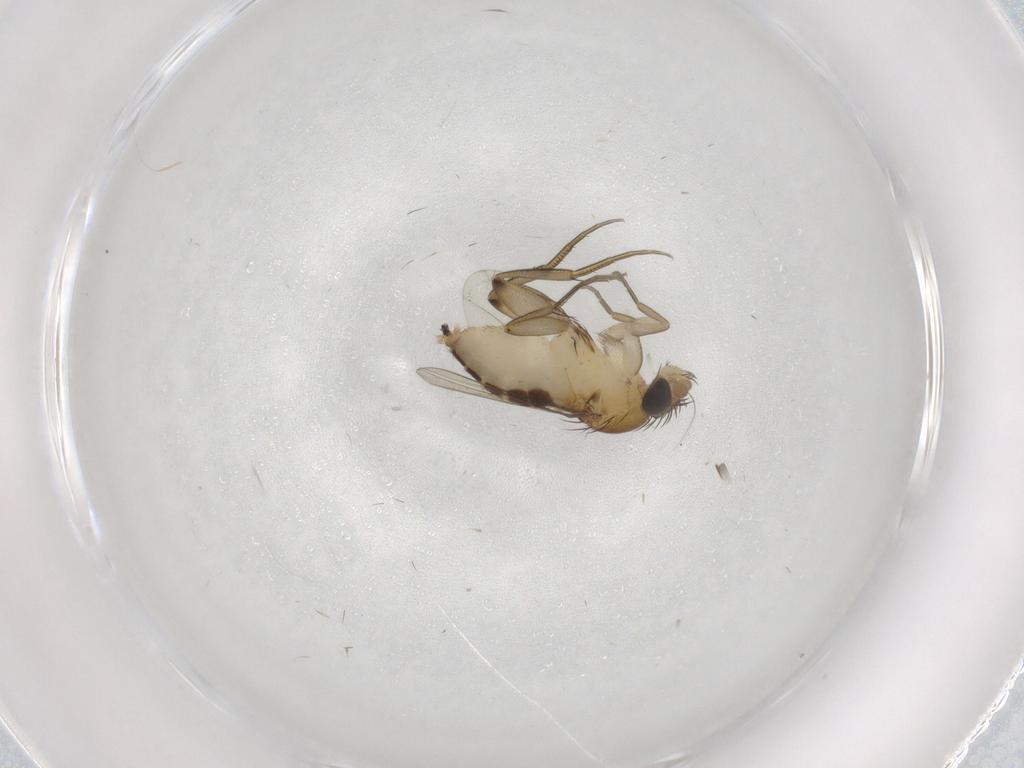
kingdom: Animalia
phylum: Arthropoda
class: Insecta
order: Diptera
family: Phoridae
